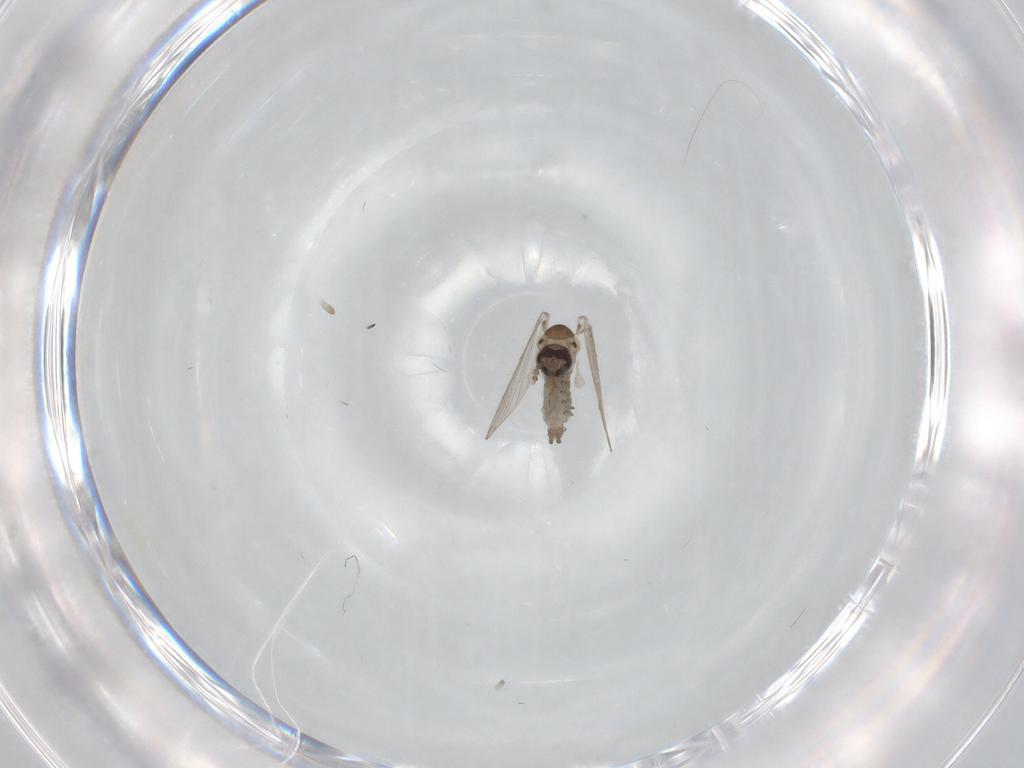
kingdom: Animalia
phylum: Arthropoda
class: Insecta
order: Diptera
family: Psychodidae
